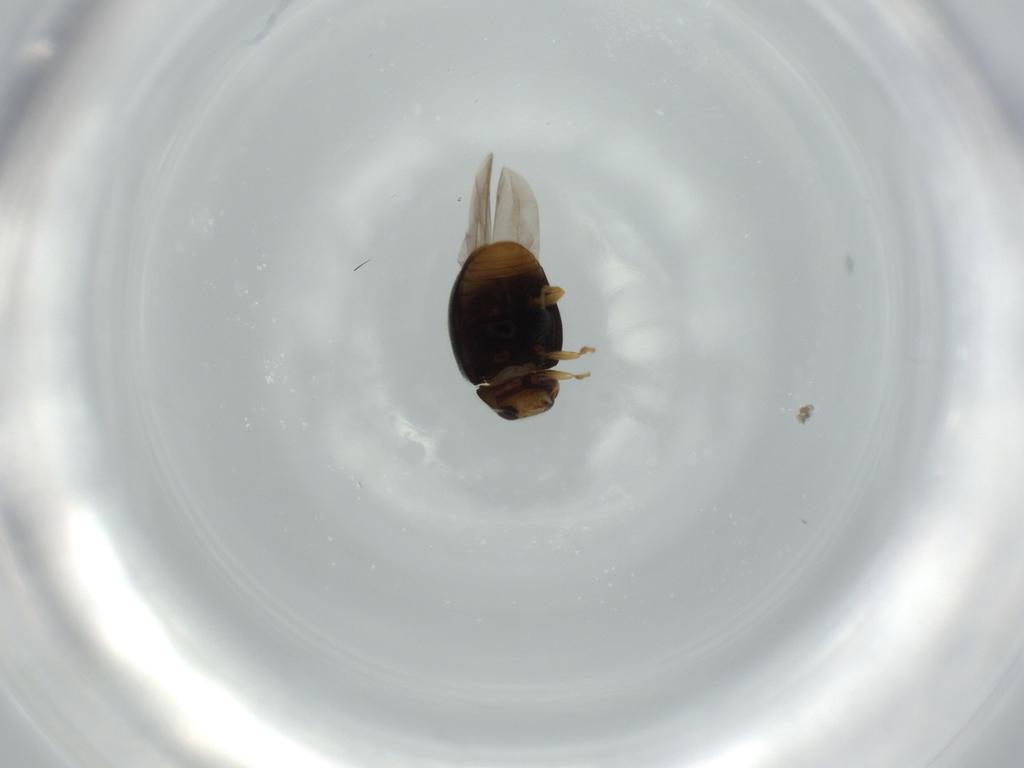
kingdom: Animalia
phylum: Arthropoda
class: Insecta
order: Coleoptera
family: Coccinellidae
